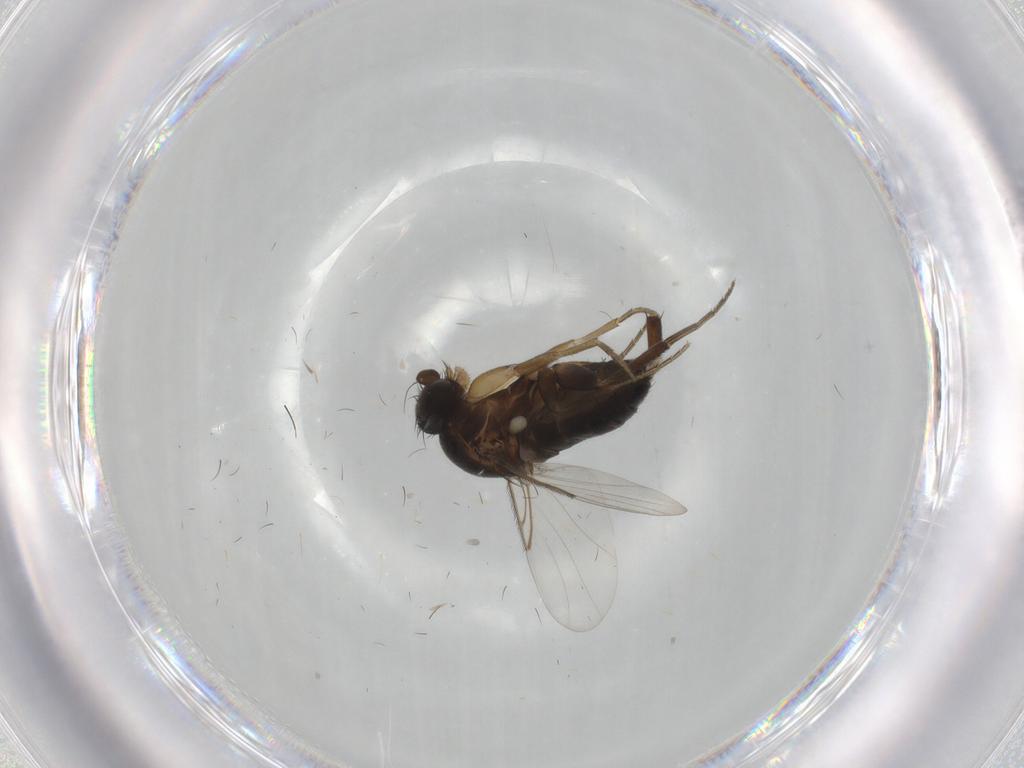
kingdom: Animalia
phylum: Arthropoda
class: Insecta
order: Diptera
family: Phoridae
